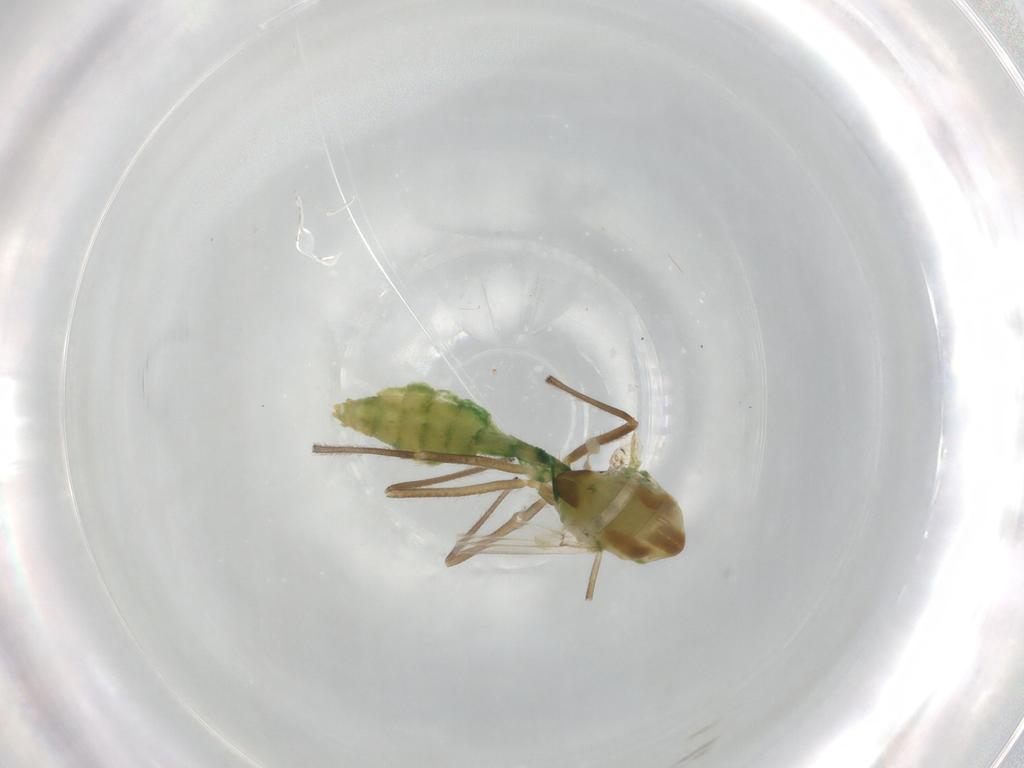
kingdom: Animalia
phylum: Arthropoda
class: Insecta
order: Diptera
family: Chironomidae
